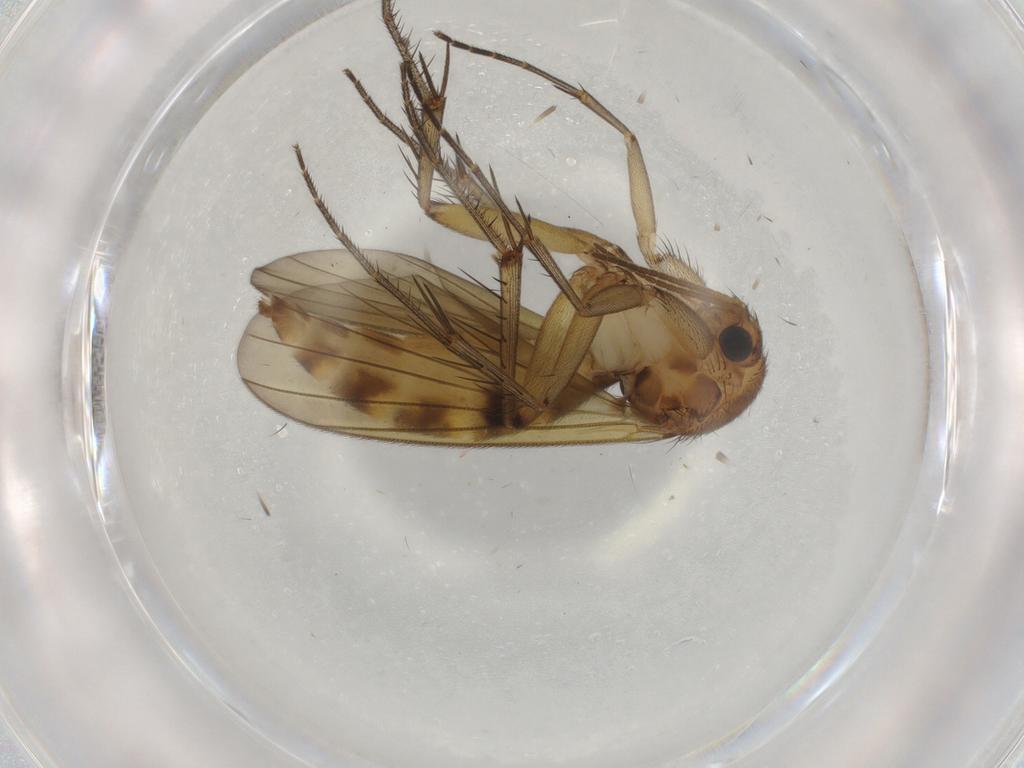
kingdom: Animalia
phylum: Arthropoda
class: Insecta
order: Diptera
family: Mycetophilidae
